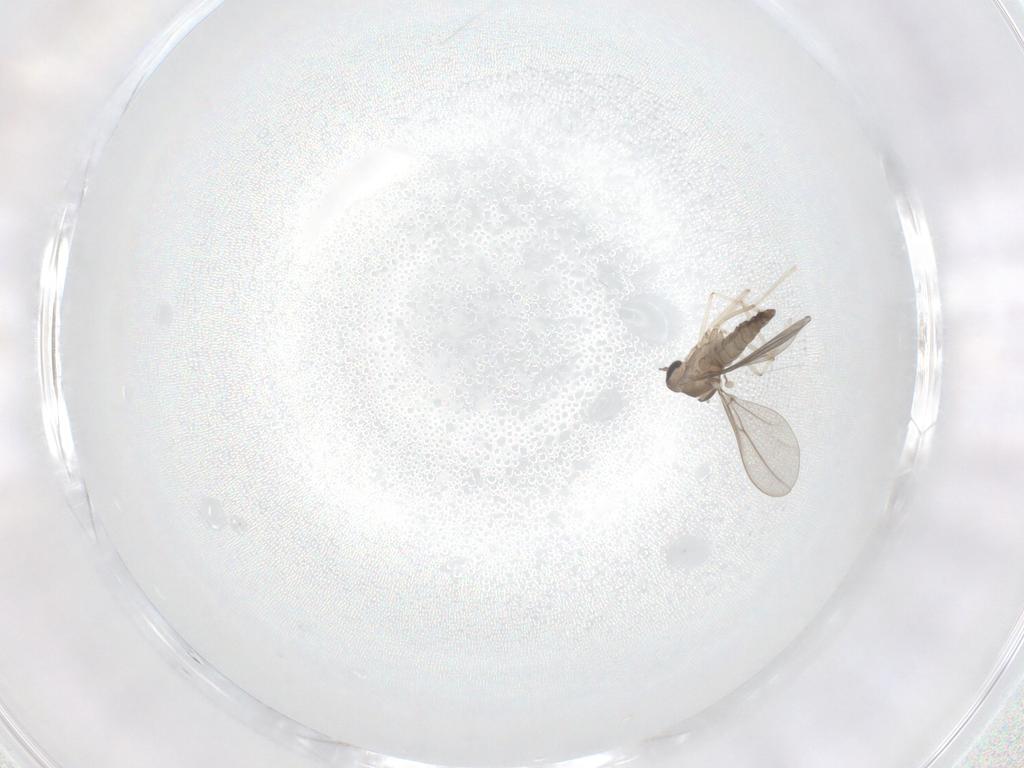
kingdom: Animalia
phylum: Arthropoda
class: Insecta
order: Diptera
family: Cecidomyiidae
